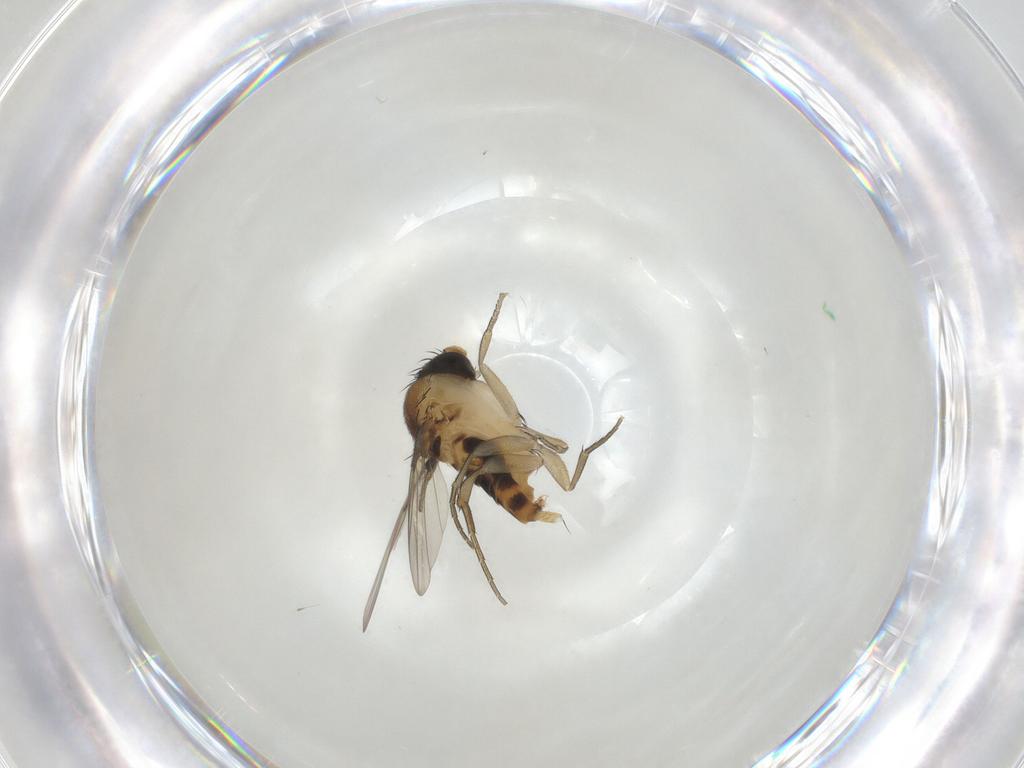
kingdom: Animalia
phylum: Arthropoda
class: Insecta
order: Diptera
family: Phoridae
